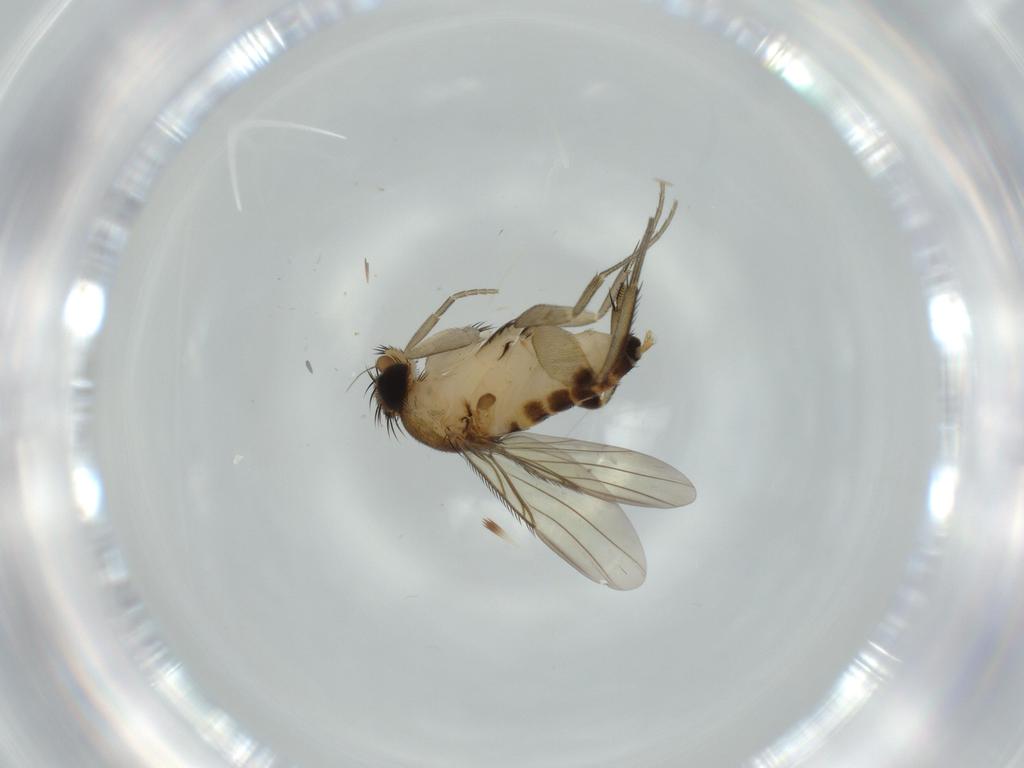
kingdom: Animalia
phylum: Arthropoda
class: Insecta
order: Diptera
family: Phoridae
